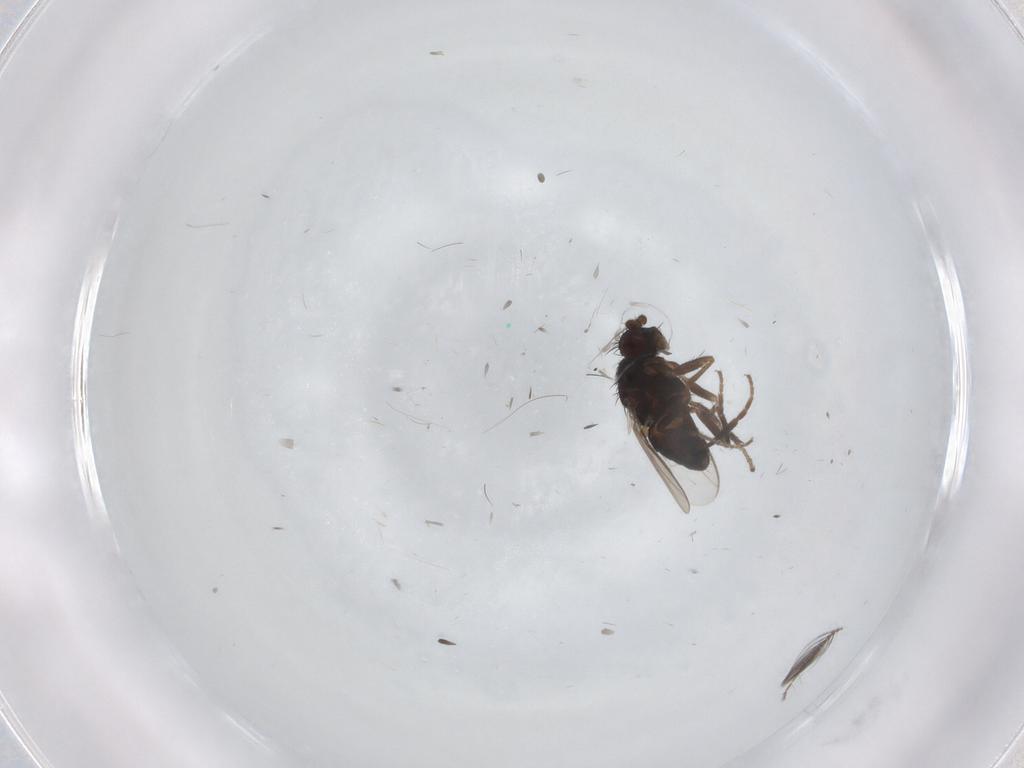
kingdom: Animalia
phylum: Arthropoda
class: Insecta
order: Diptera
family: Sphaeroceridae
